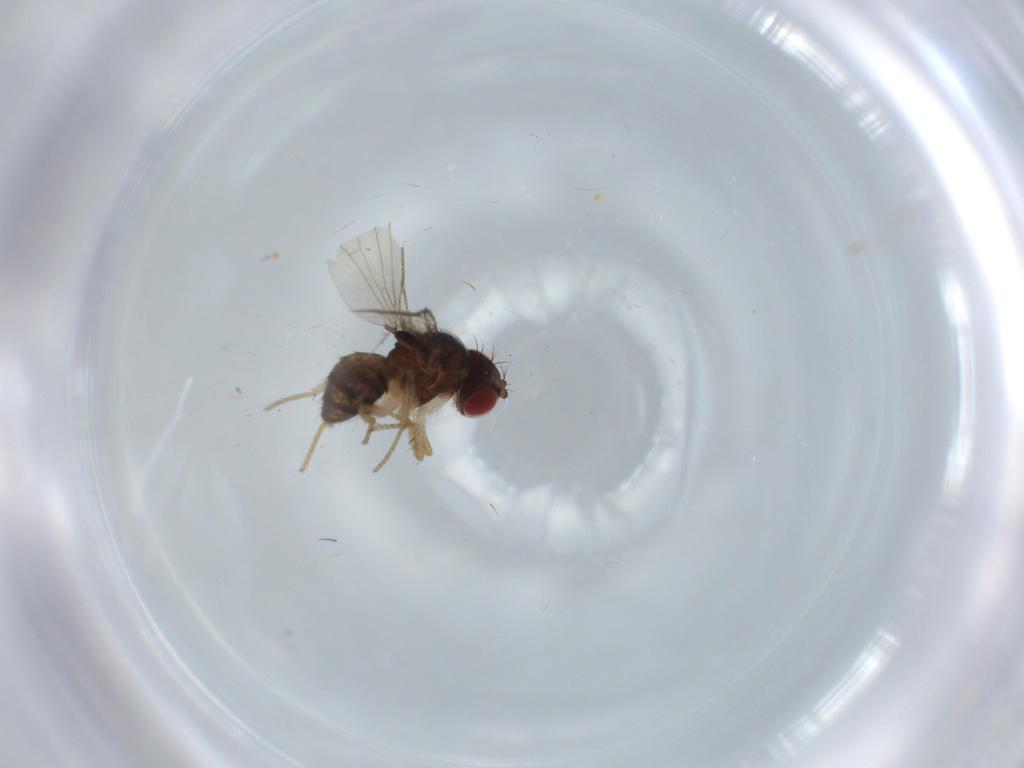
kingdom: Animalia
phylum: Arthropoda
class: Insecta
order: Diptera
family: Drosophilidae
